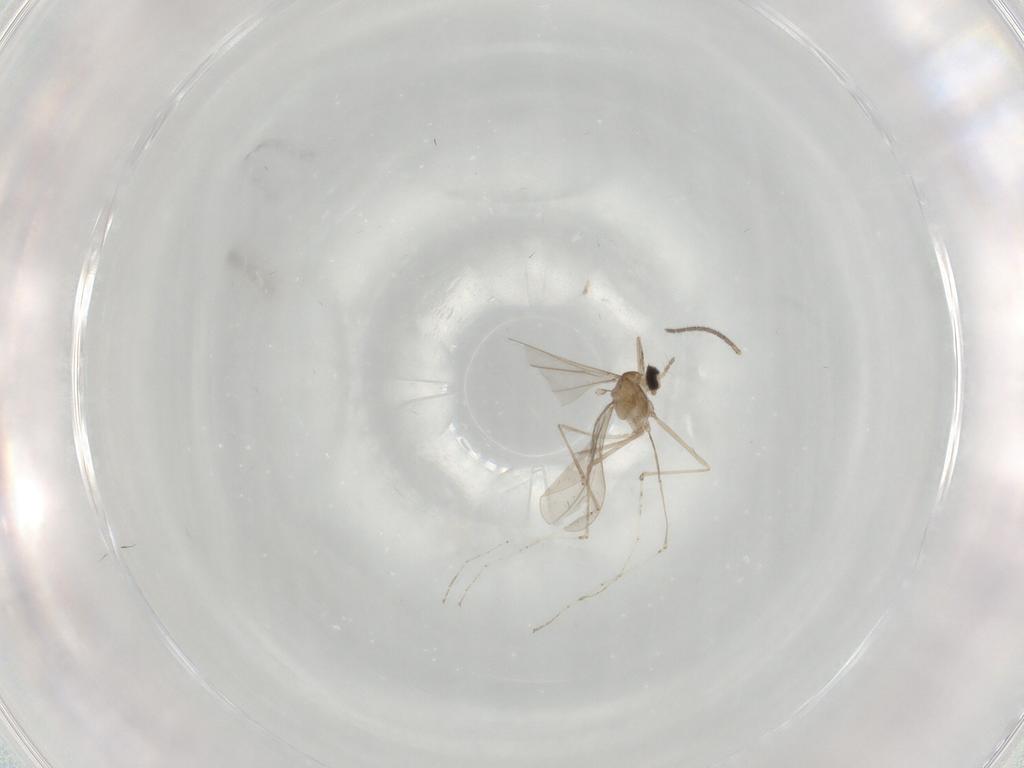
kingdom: Animalia
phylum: Arthropoda
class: Insecta
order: Diptera
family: Cecidomyiidae
